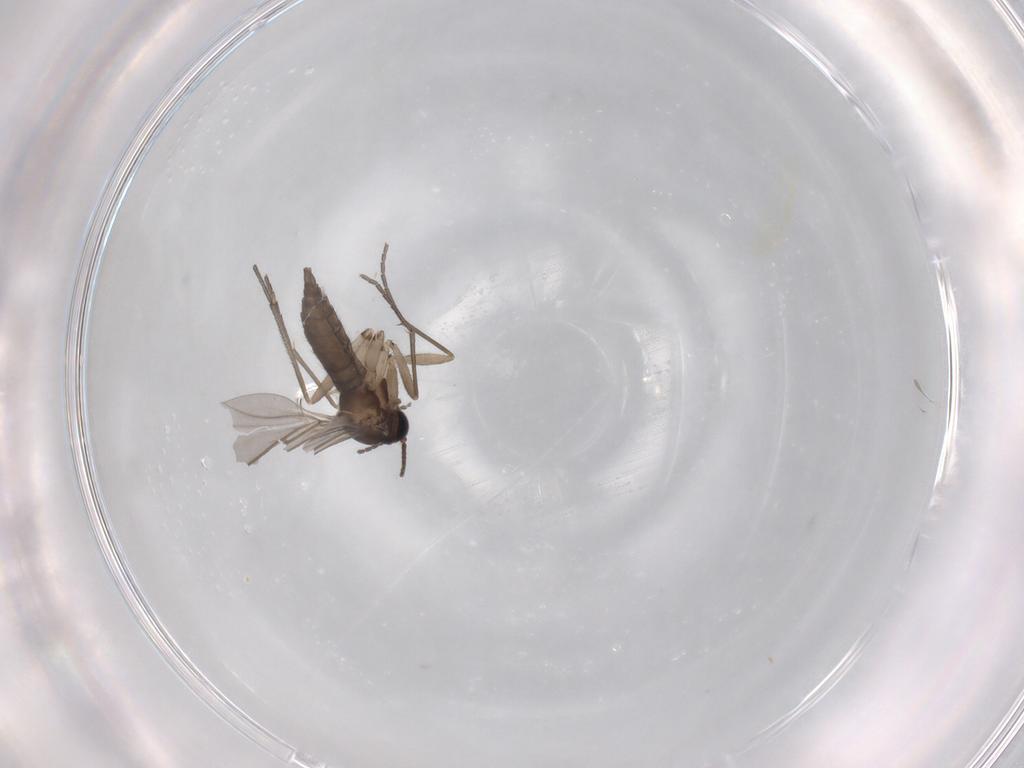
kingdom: Animalia
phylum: Arthropoda
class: Insecta
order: Diptera
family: Sciaridae
